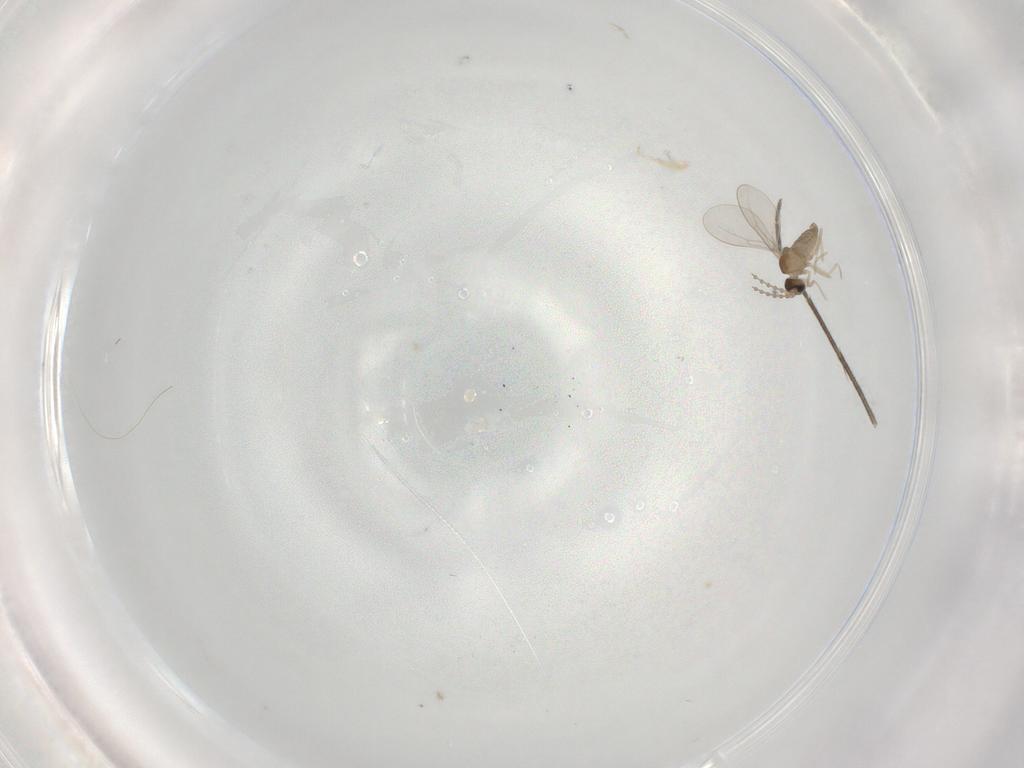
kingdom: Animalia
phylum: Arthropoda
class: Insecta
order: Diptera
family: Cecidomyiidae
